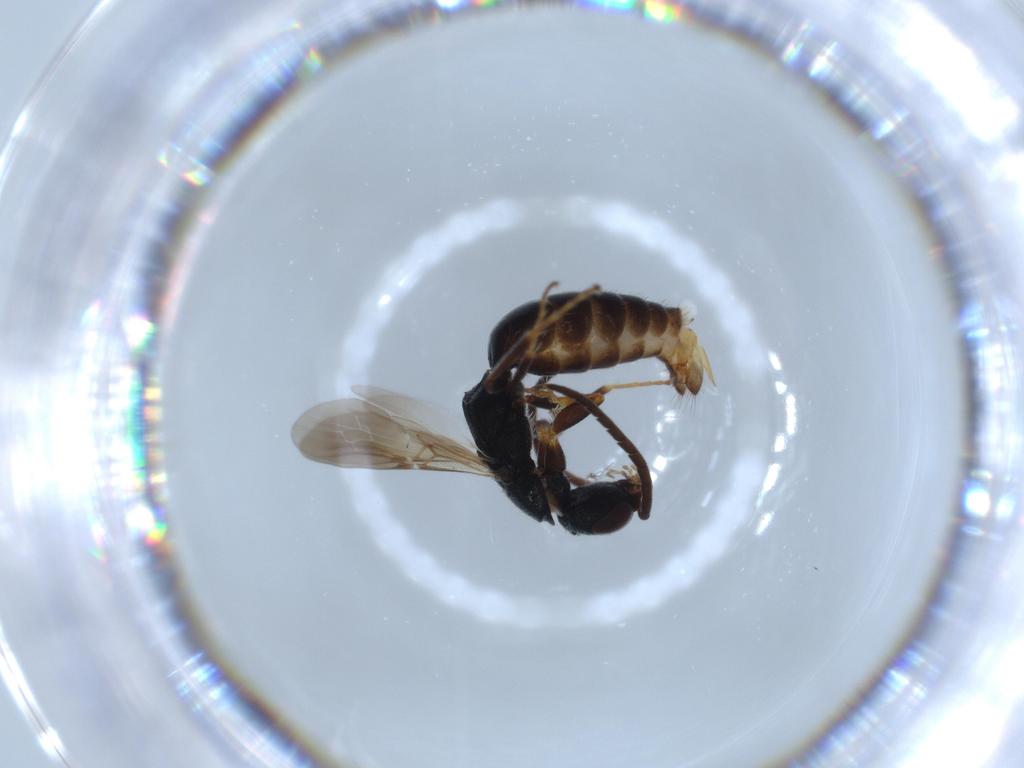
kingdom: Animalia
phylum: Arthropoda
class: Insecta
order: Hymenoptera
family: Bethylidae
